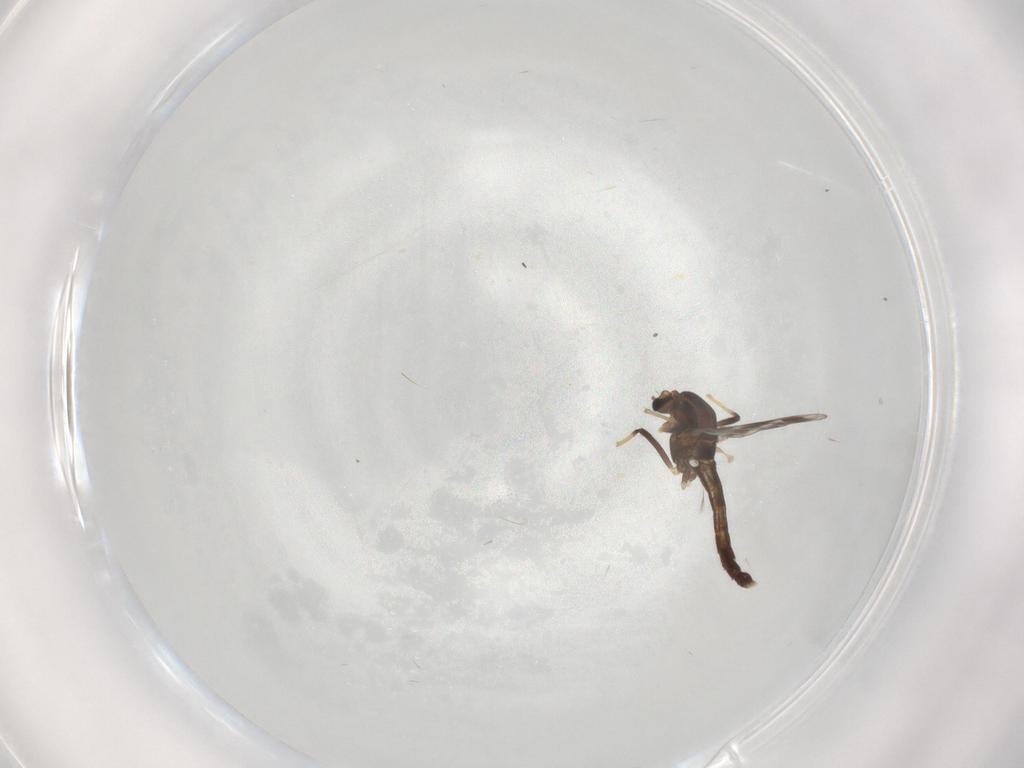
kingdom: Animalia
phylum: Arthropoda
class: Insecta
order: Diptera
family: Chironomidae
